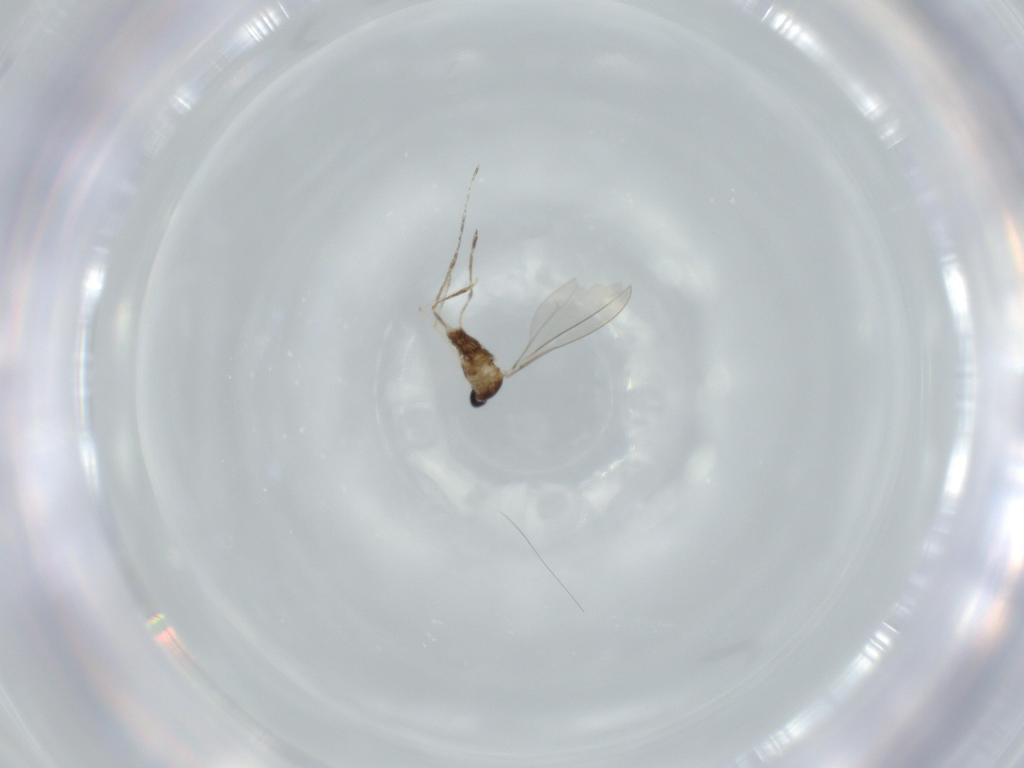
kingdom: Animalia
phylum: Arthropoda
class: Insecta
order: Diptera
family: Cecidomyiidae
